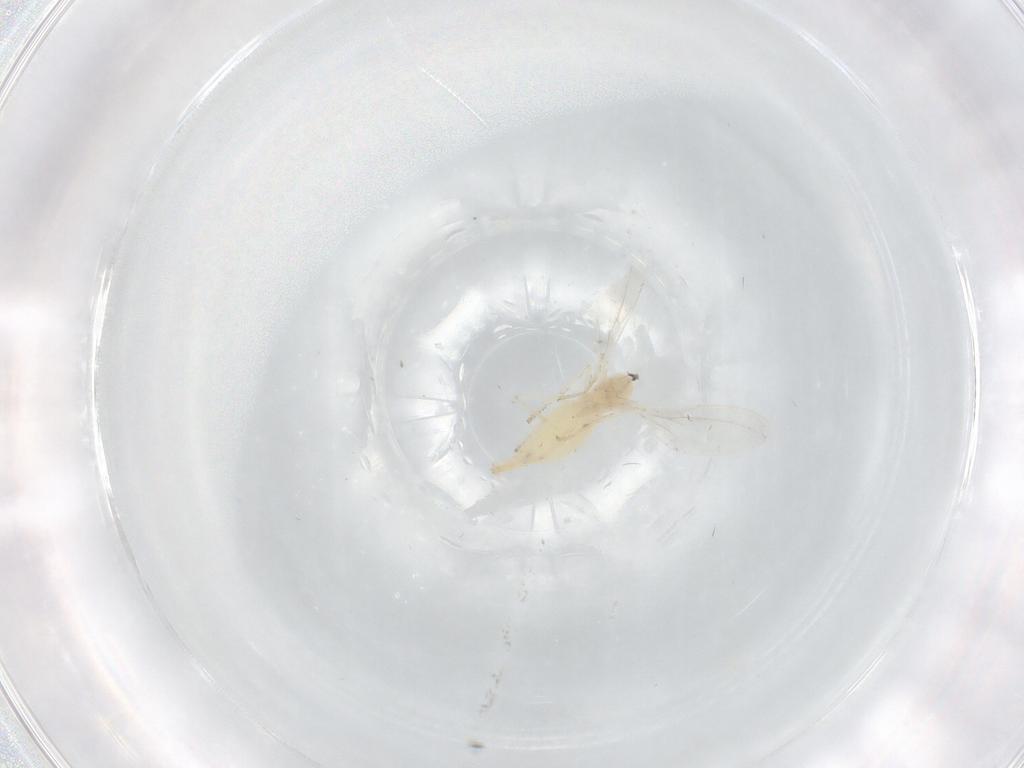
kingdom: Animalia
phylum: Arthropoda
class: Insecta
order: Diptera
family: Cecidomyiidae
